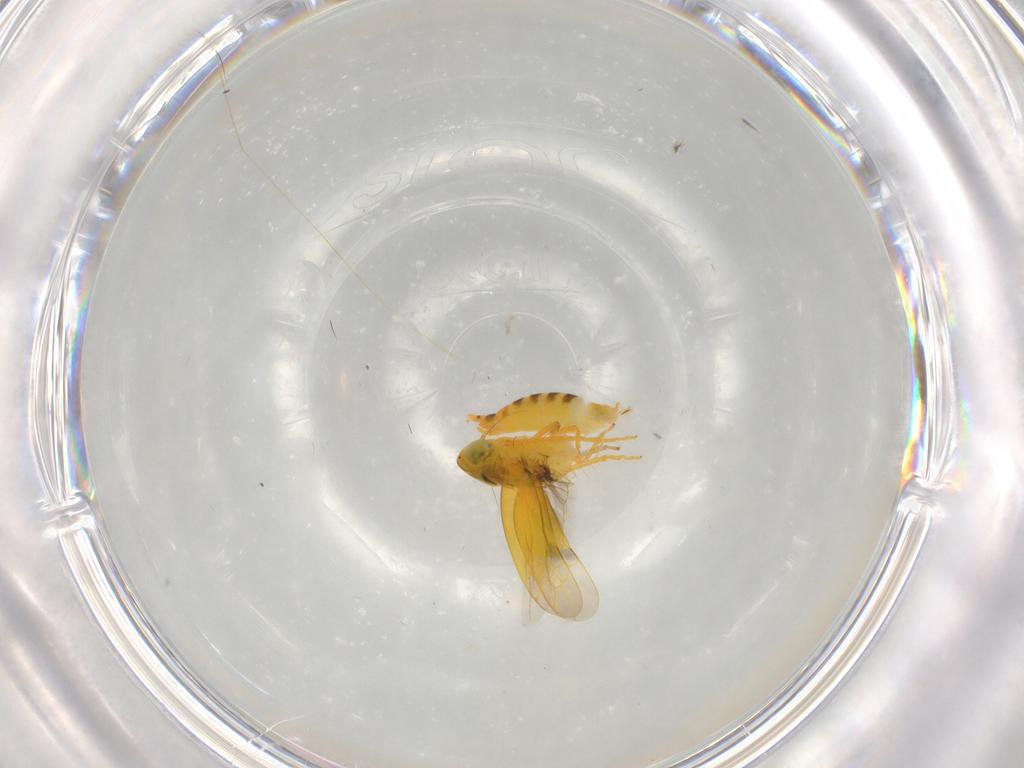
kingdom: Animalia
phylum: Arthropoda
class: Insecta
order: Hemiptera
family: Cicadellidae
